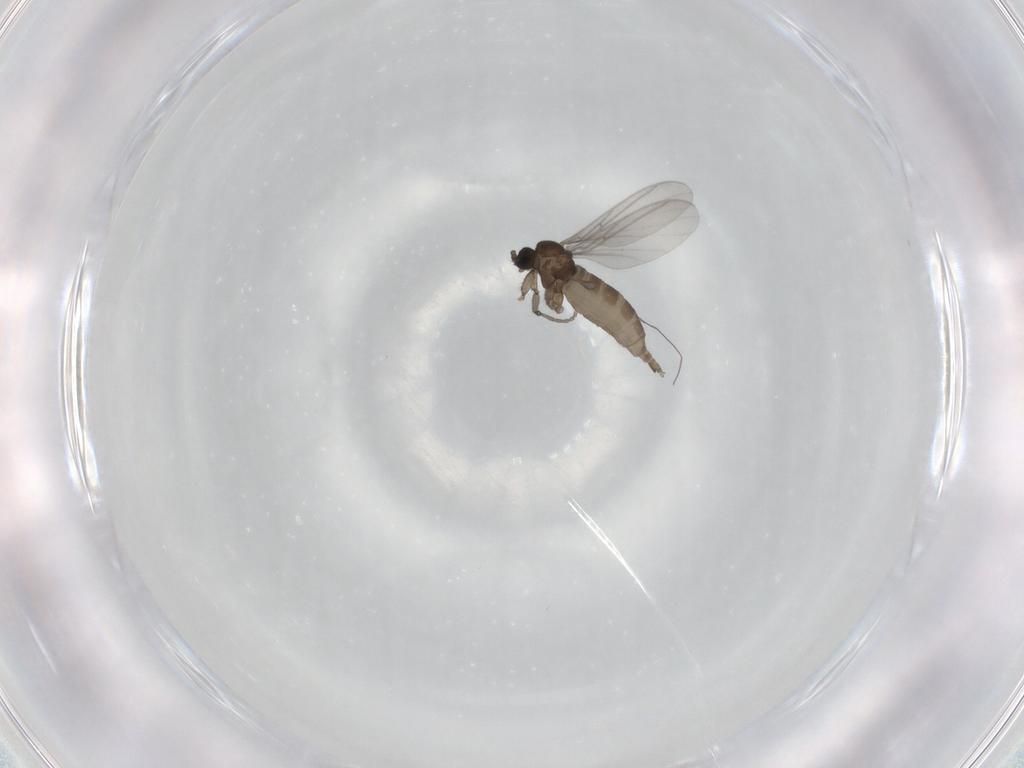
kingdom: Animalia
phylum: Arthropoda
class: Insecta
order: Diptera
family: Sciaridae
